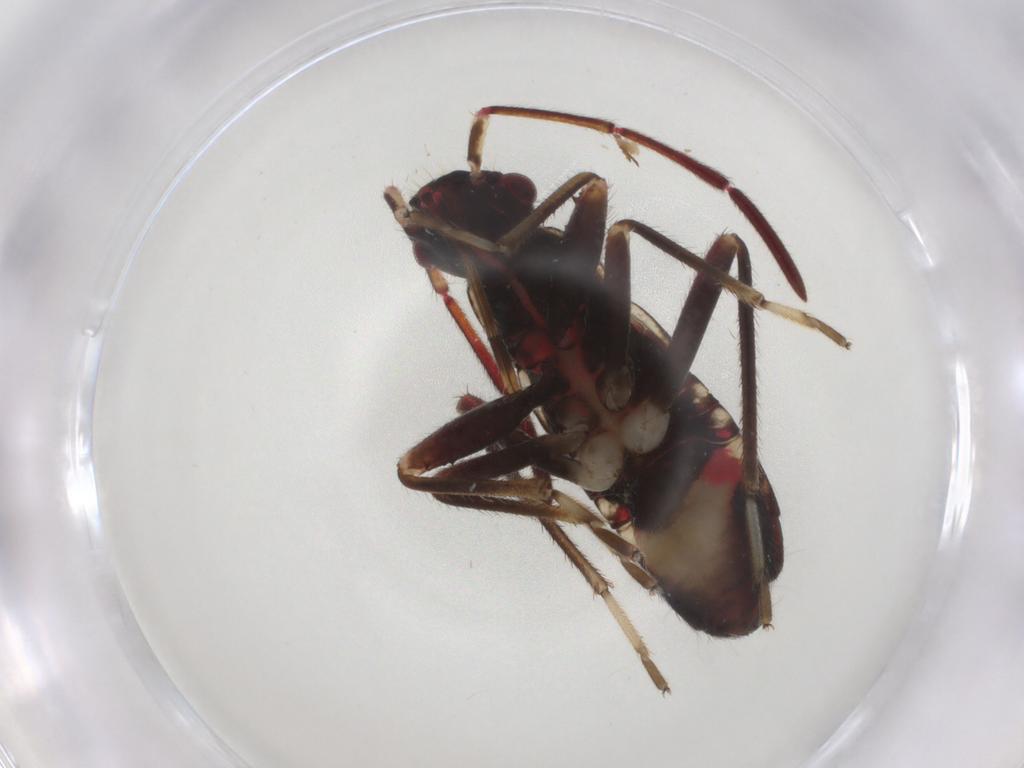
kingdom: Animalia
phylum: Arthropoda
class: Insecta
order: Hemiptera
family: Rhyparochromidae
